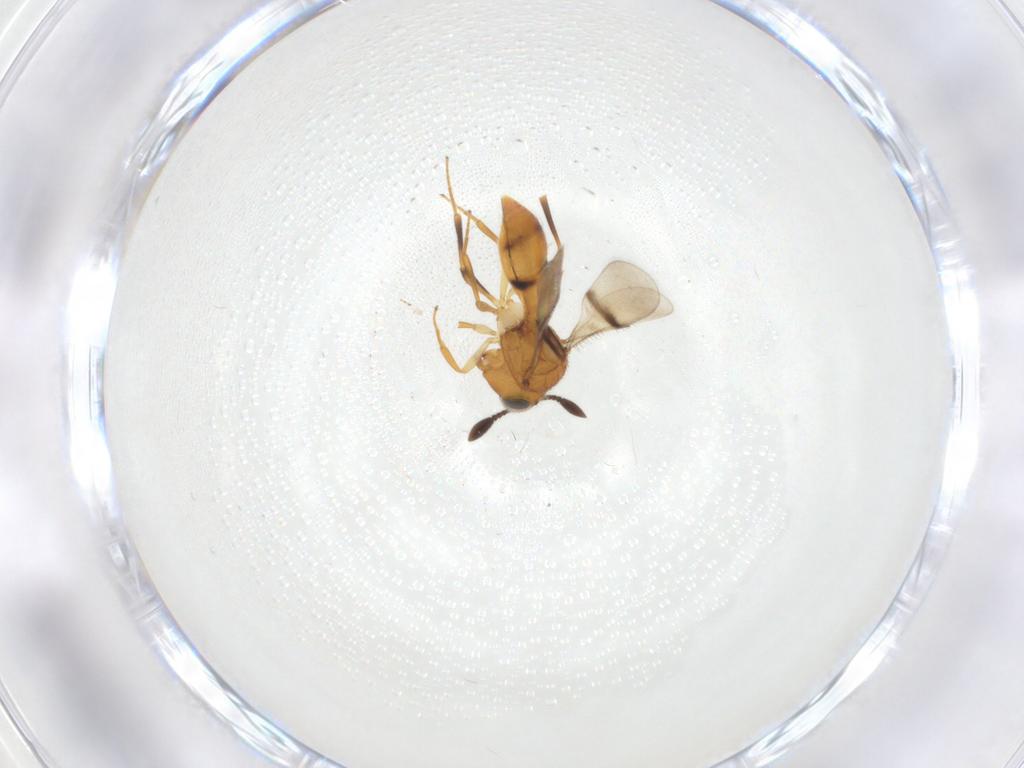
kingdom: Animalia
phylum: Arthropoda
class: Insecta
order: Hymenoptera
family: Scelionidae
